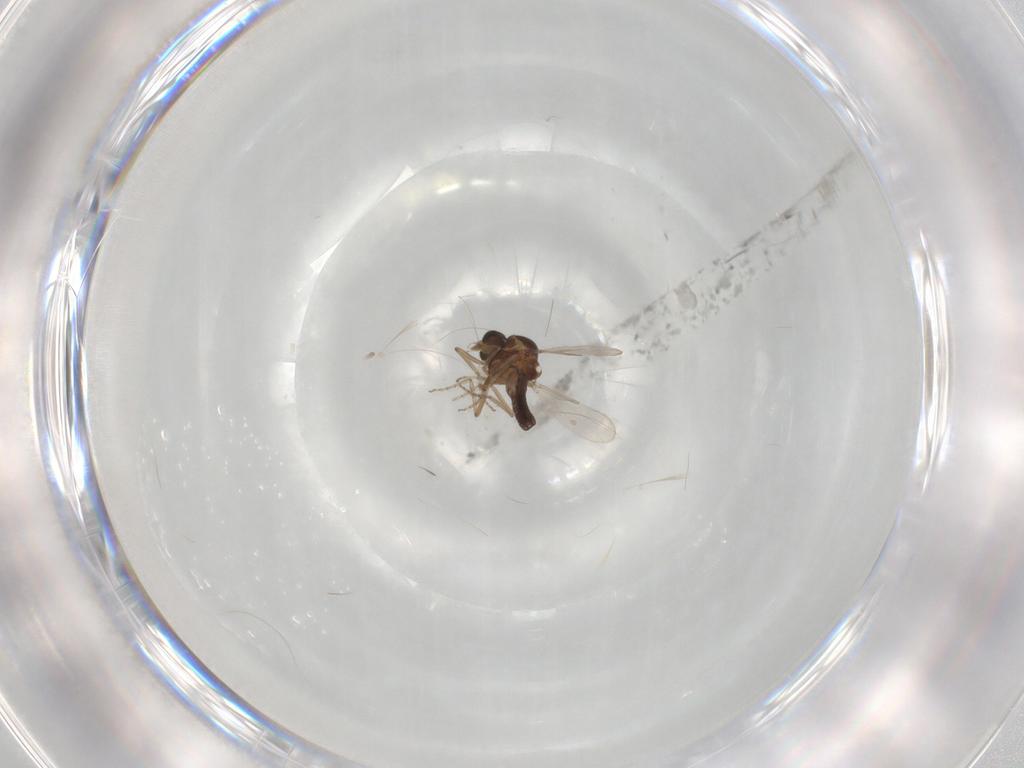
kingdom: Animalia
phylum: Arthropoda
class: Insecta
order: Diptera
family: Ceratopogonidae
